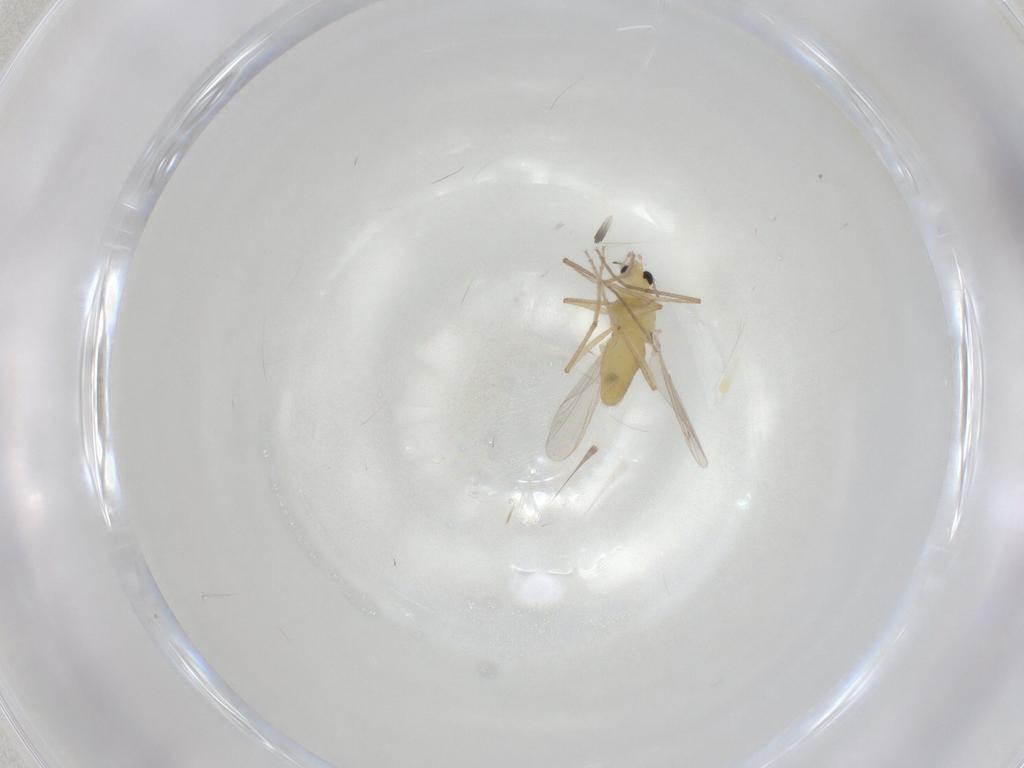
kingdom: Animalia
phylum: Arthropoda
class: Insecta
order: Diptera
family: Chironomidae
